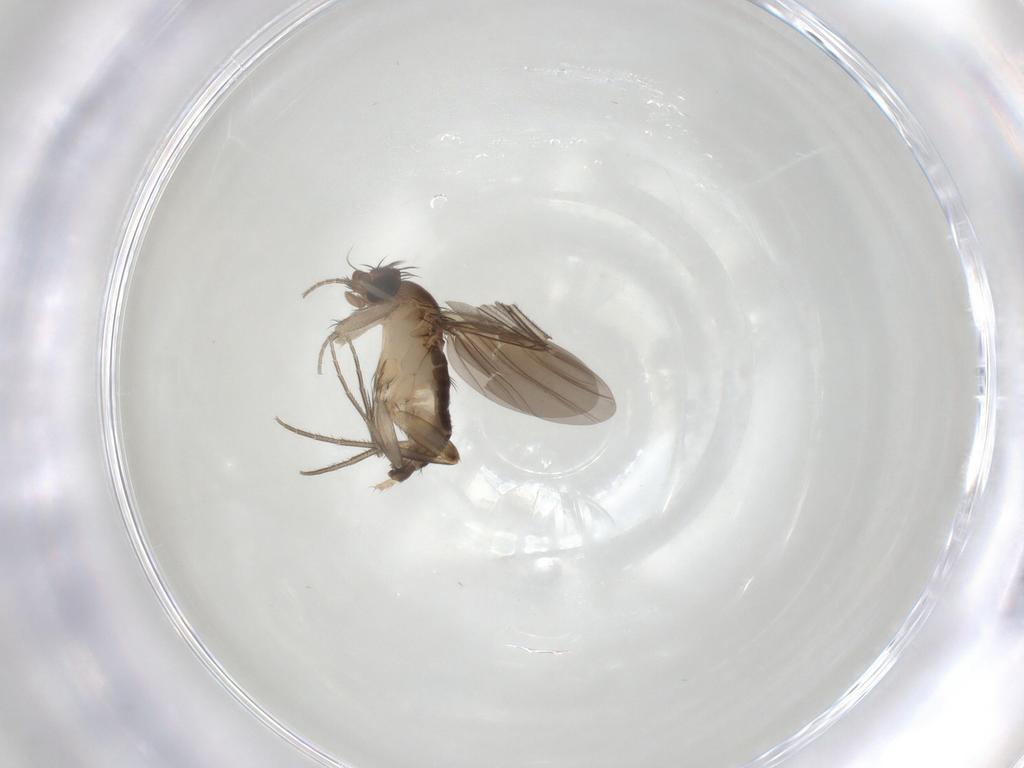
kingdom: Animalia
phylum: Arthropoda
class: Insecta
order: Diptera
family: Phoridae
